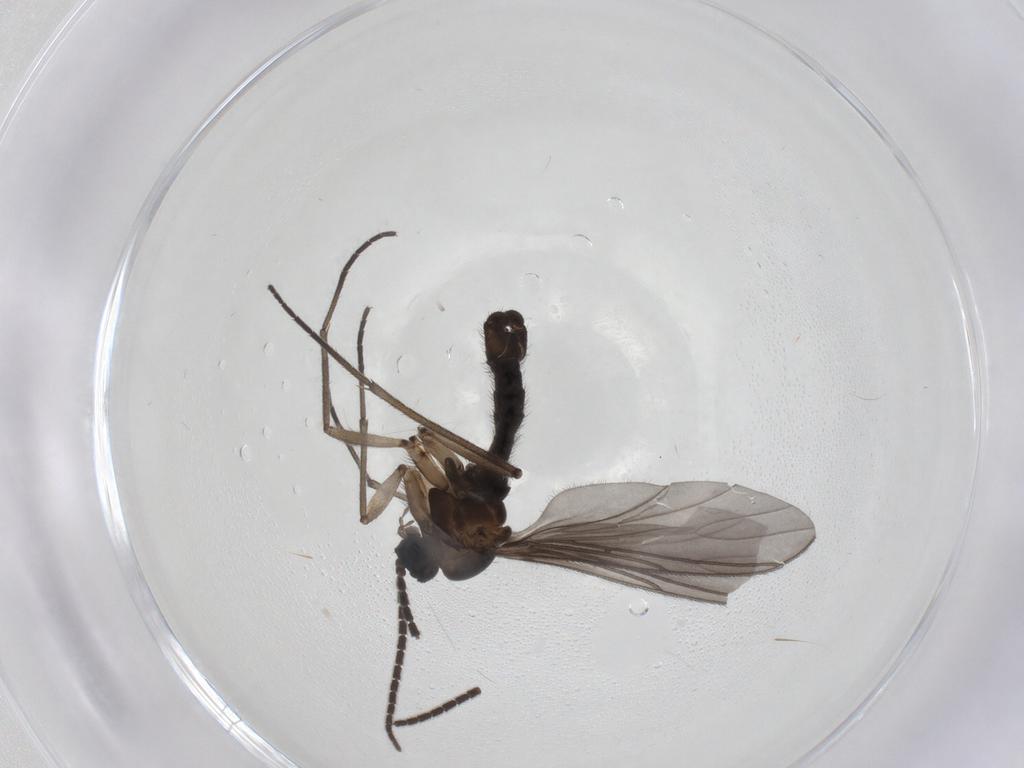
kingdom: Animalia
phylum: Arthropoda
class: Insecta
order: Diptera
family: Sciaridae
